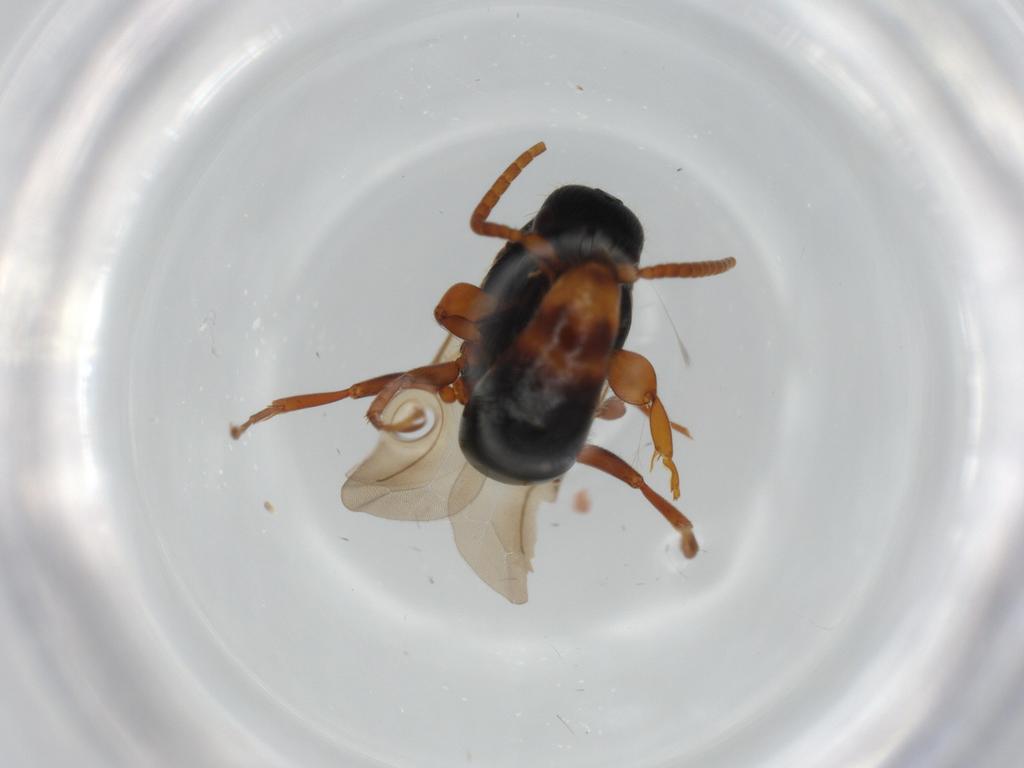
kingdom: Animalia
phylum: Arthropoda
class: Insecta
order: Hymenoptera
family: Bethylidae
